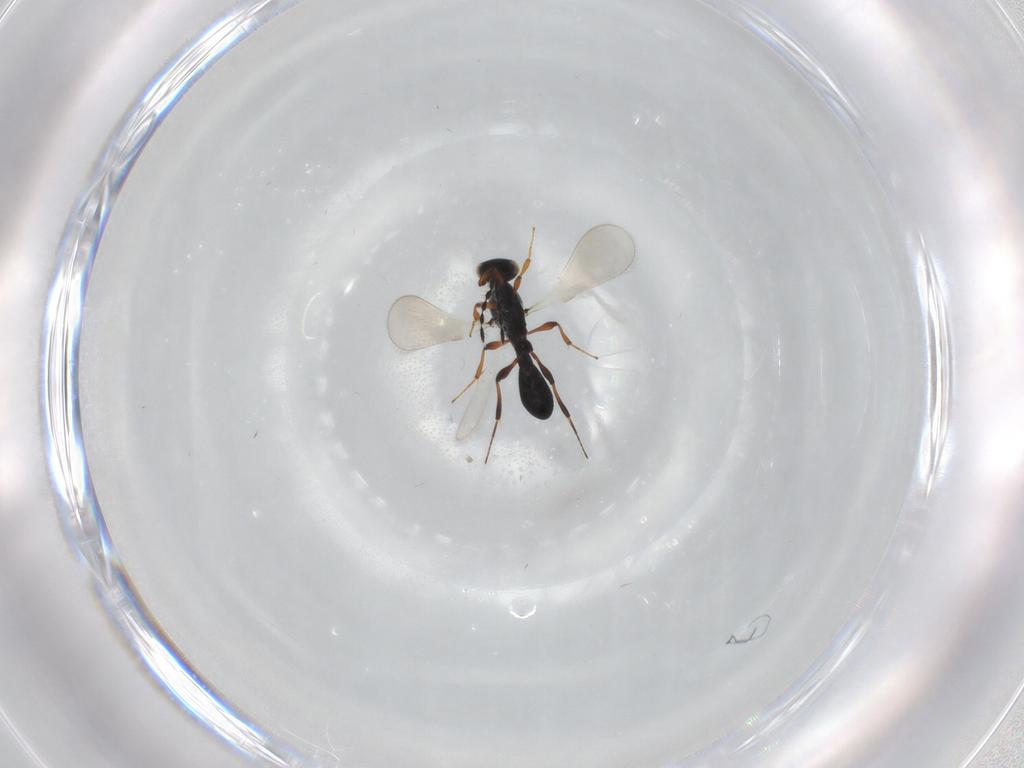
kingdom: Animalia
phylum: Arthropoda
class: Insecta
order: Hymenoptera
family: Platygastridae
